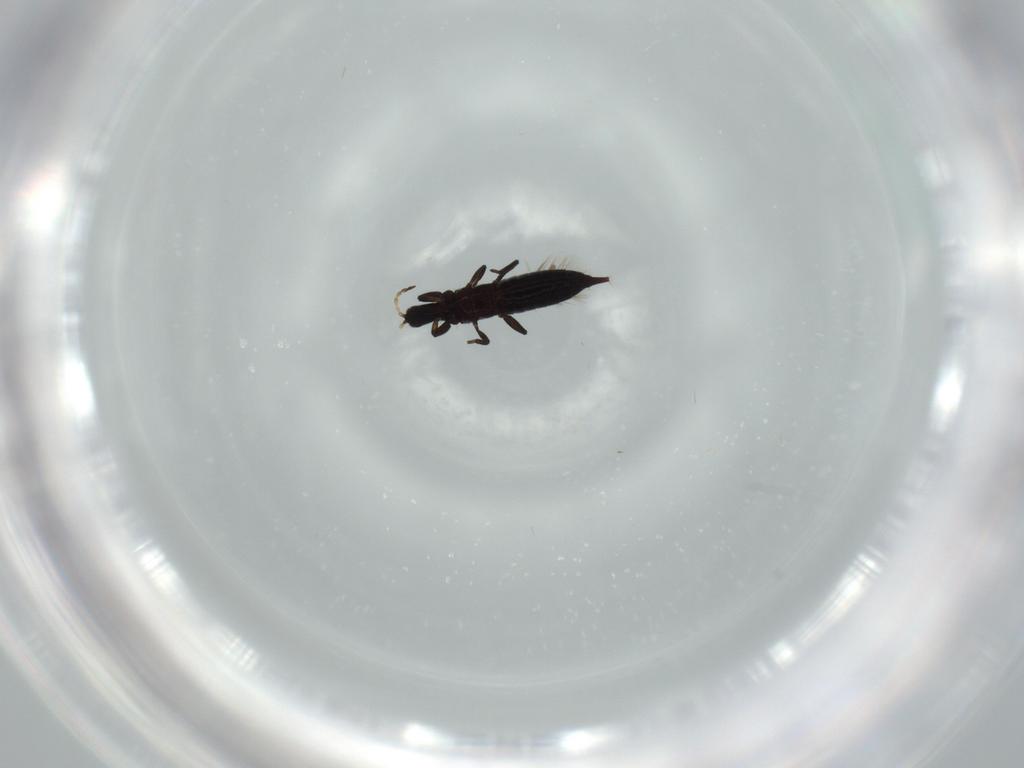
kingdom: Animalia
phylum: Arthropoda
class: Insecta
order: Thysanoptera
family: Phlaeothripidae
